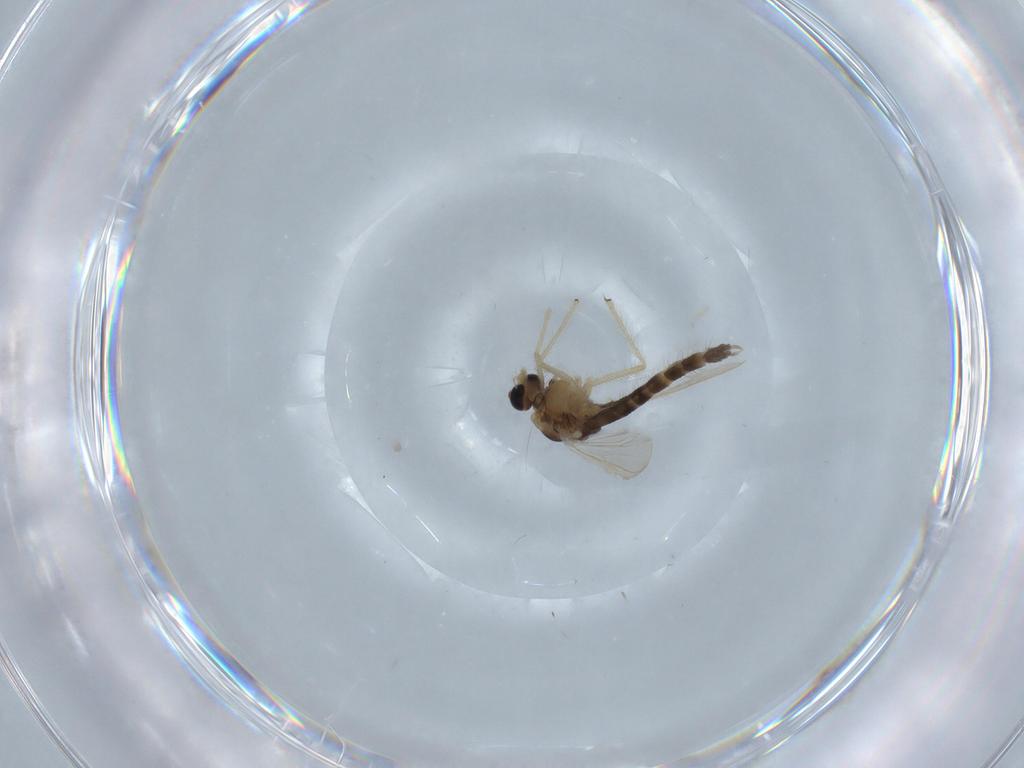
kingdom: Animalia
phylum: Arthropoda
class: Insecta
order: Diptera
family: Chironomidae
